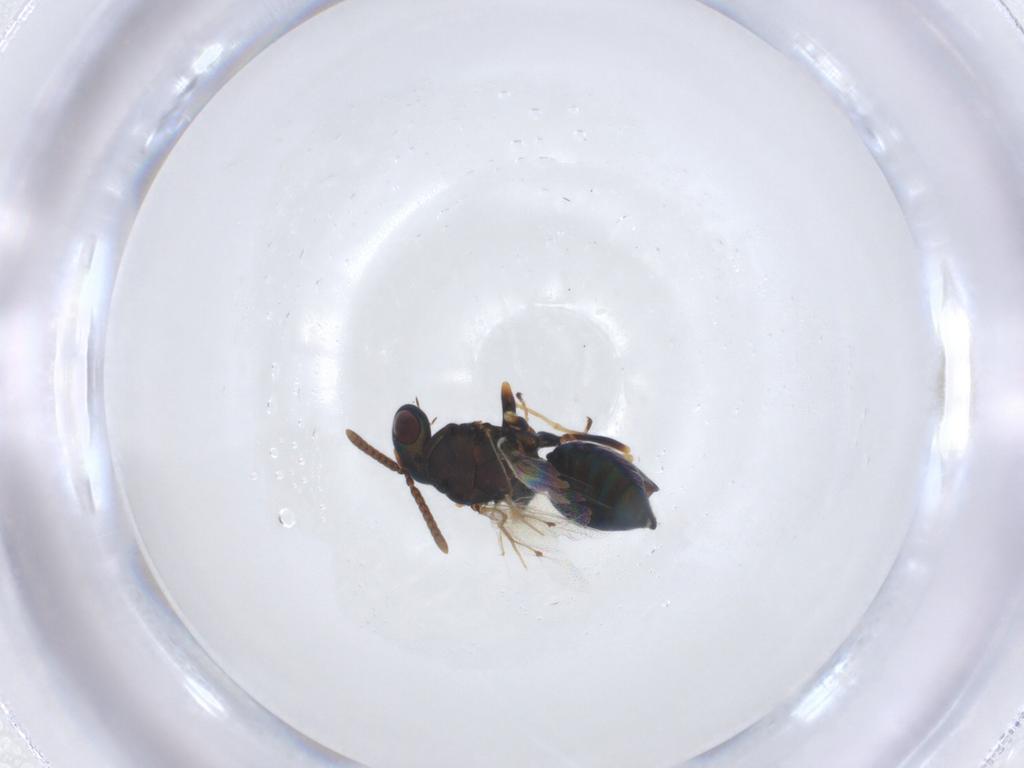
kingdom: Animalia
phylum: Arthropoda
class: Insecta
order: Hymenoptera
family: Pteromalidae
